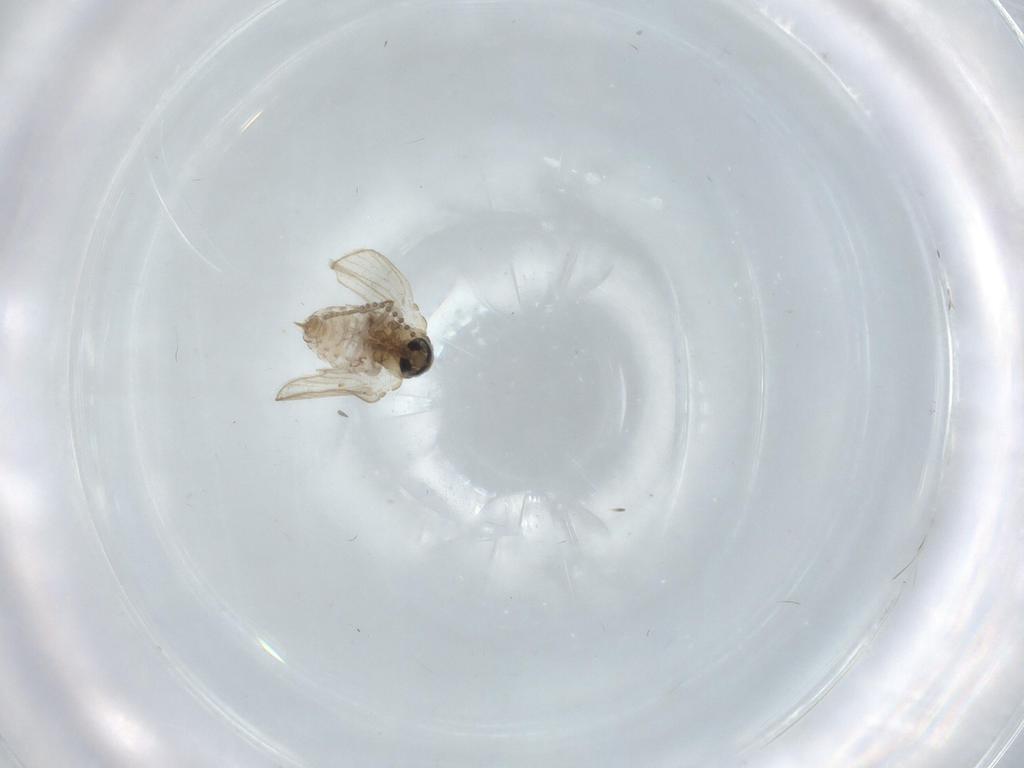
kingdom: Animalia
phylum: Arthropoda
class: Insecta
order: Diptera
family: Psychodidae
